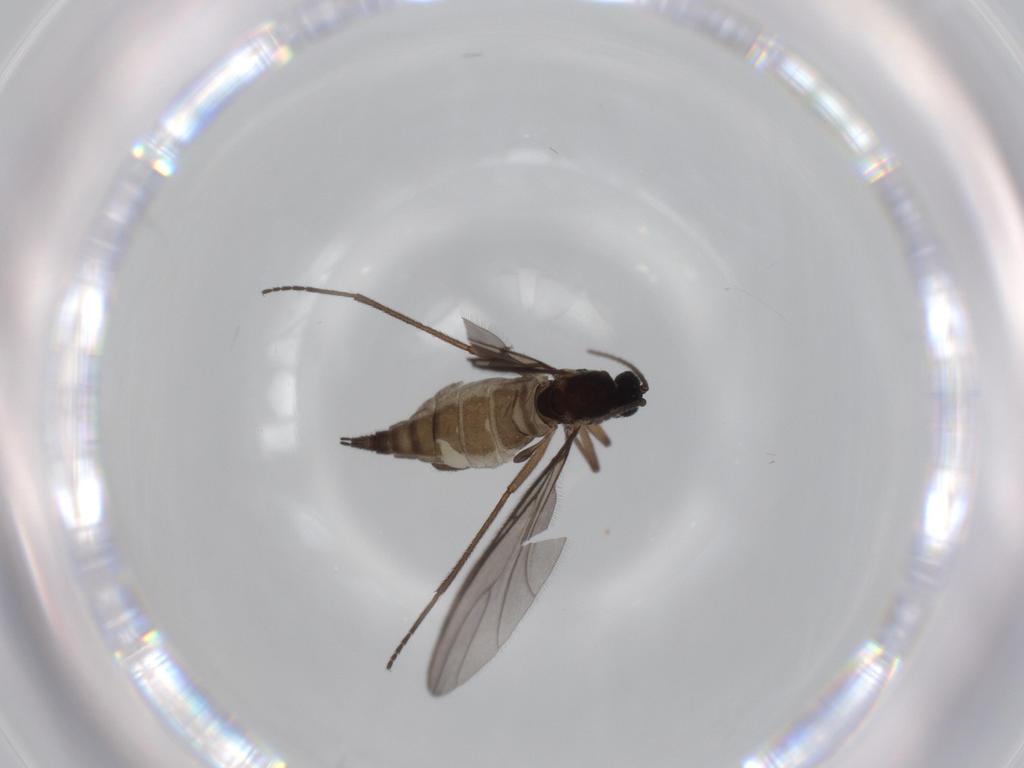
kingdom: Animalia
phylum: Arthropoda
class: Insecta
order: Diptera
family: Sciaridae
